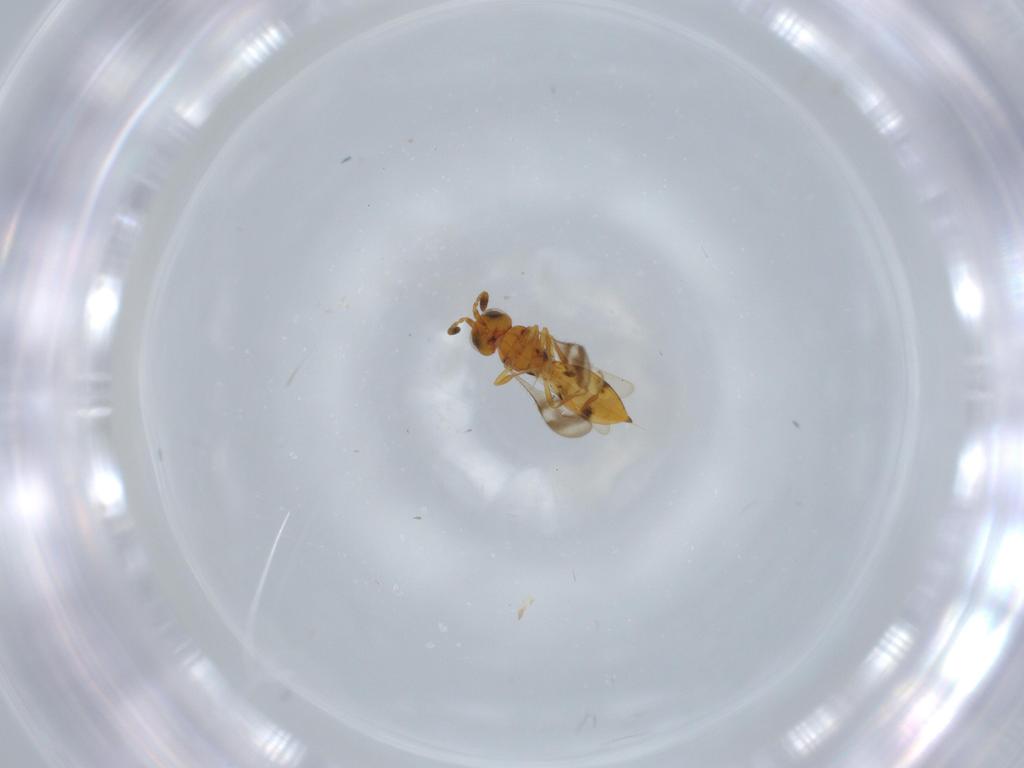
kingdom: Animalia
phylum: Arthropoda
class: Insecta
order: Hymenoptera
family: Scelionidae
